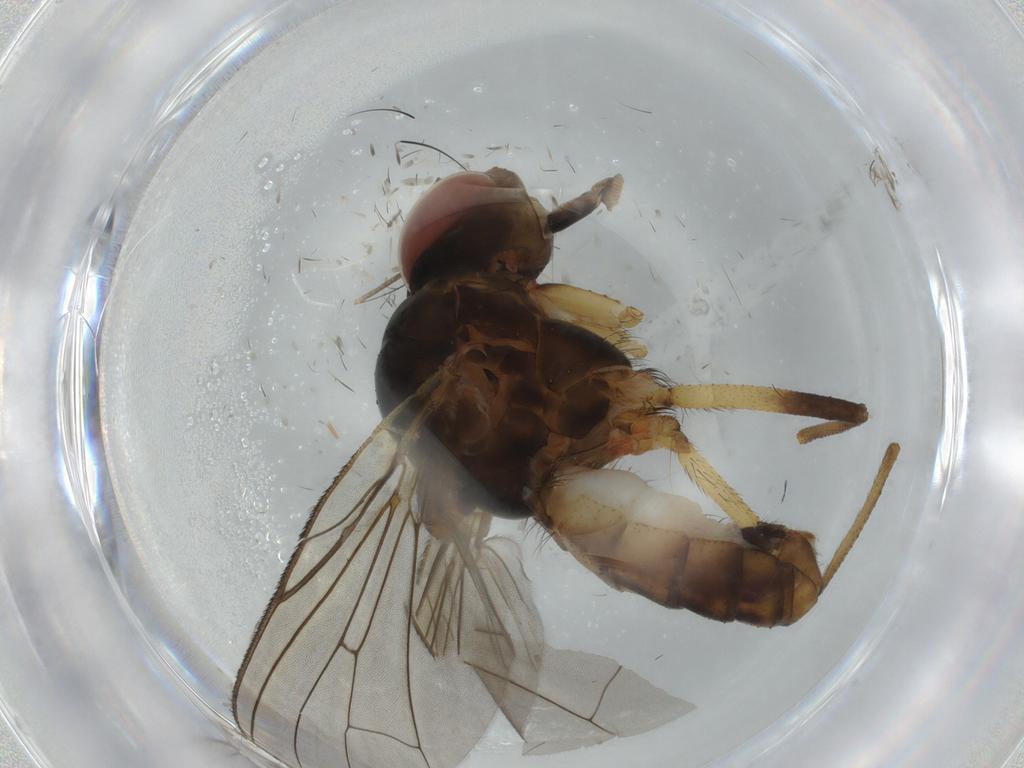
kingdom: Animalia
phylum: Arthropoda
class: Insecta
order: Diptera
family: Anthomyiidae
